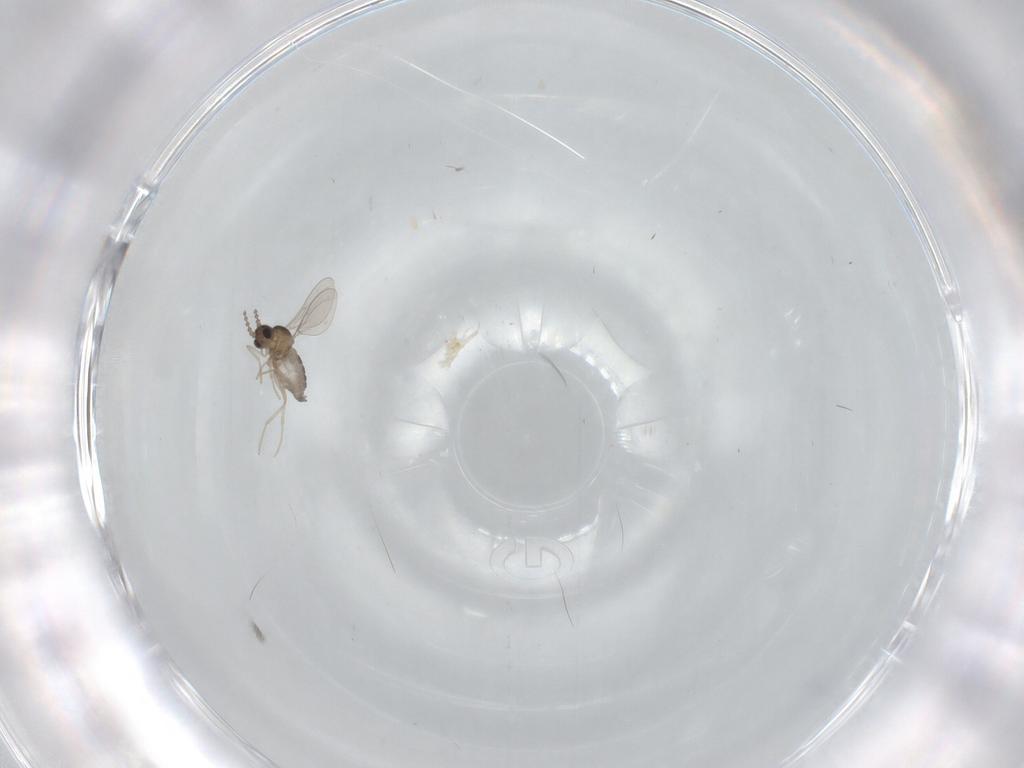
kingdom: Animalia
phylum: Arthropoda
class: Insecta
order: Diptera
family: Cecidomyiidae
